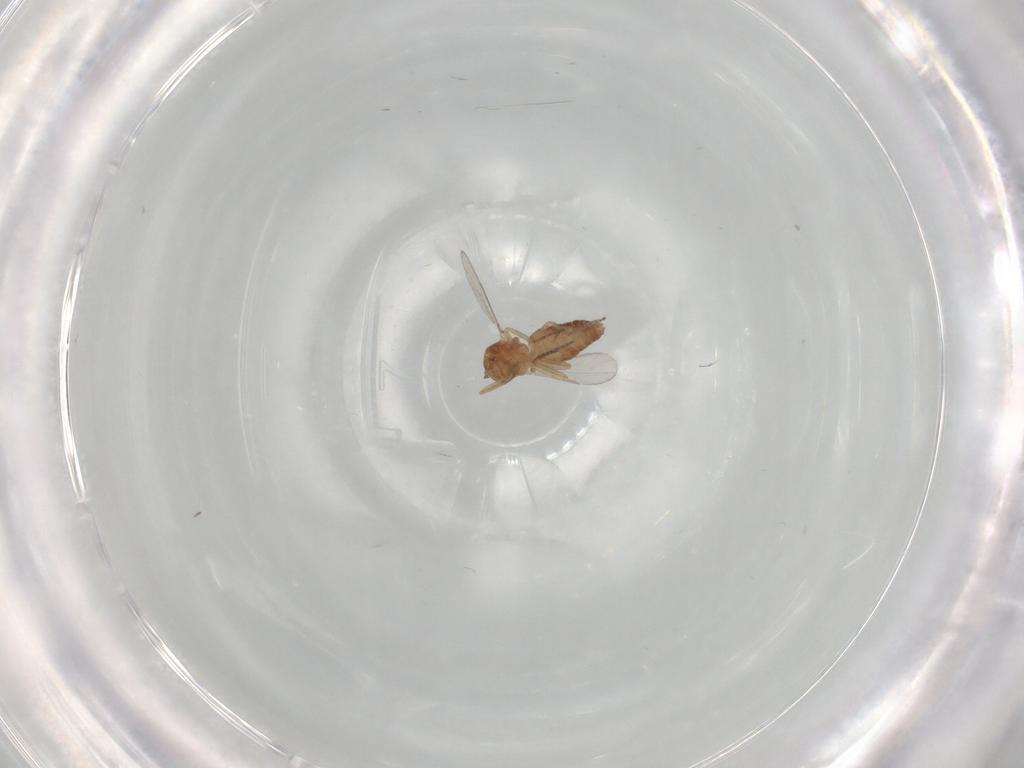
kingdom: Animalia
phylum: Arthropoda
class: Insecta
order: Diptera
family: Ceratopogonidae
